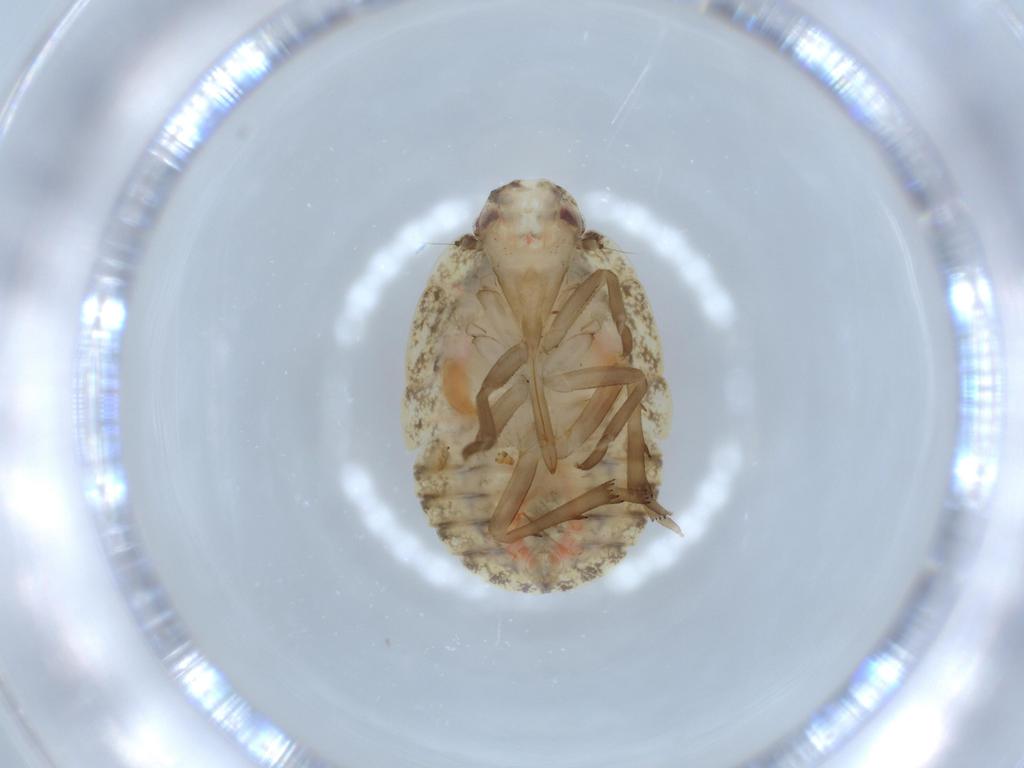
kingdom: Animalia
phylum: Arthropoda
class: Insecta
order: Hemiptera
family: Flatidae
